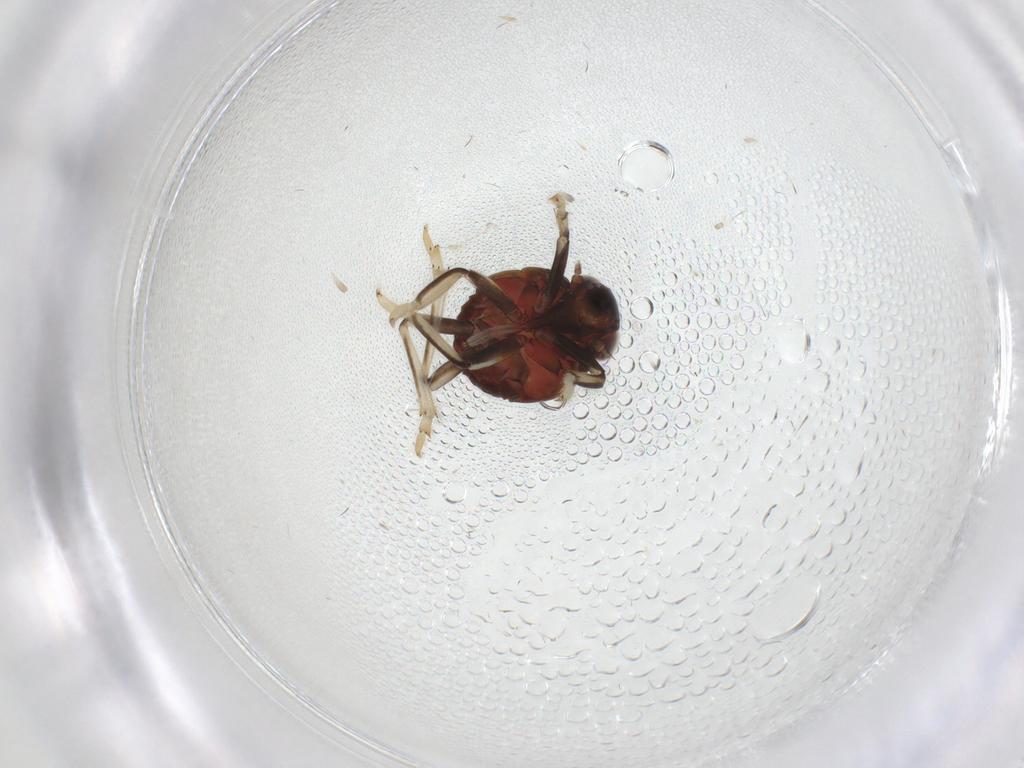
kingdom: Animalia
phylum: Arthropoda
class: Insecta
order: Hemiptera
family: Issidae
